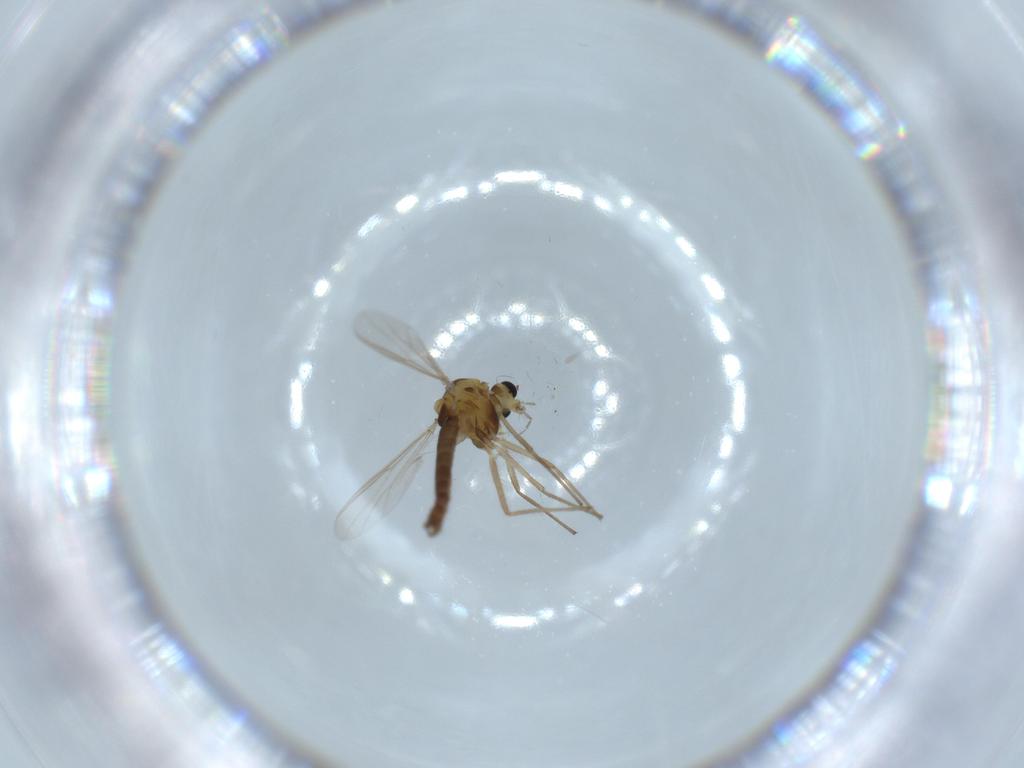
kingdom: Animalia
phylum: Arthropoda
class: Insecta
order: Diptera
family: Chironomidae
